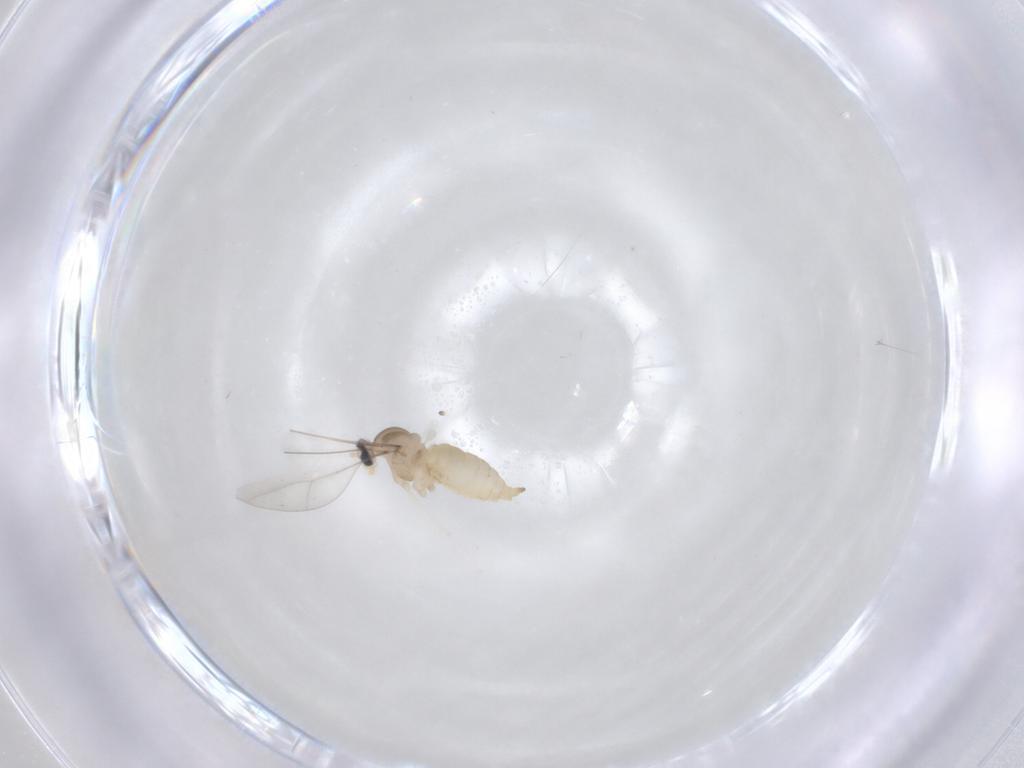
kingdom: Animalia
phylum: Arthropoda
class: Insecta
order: Diptera
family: Cecidomyiidae
